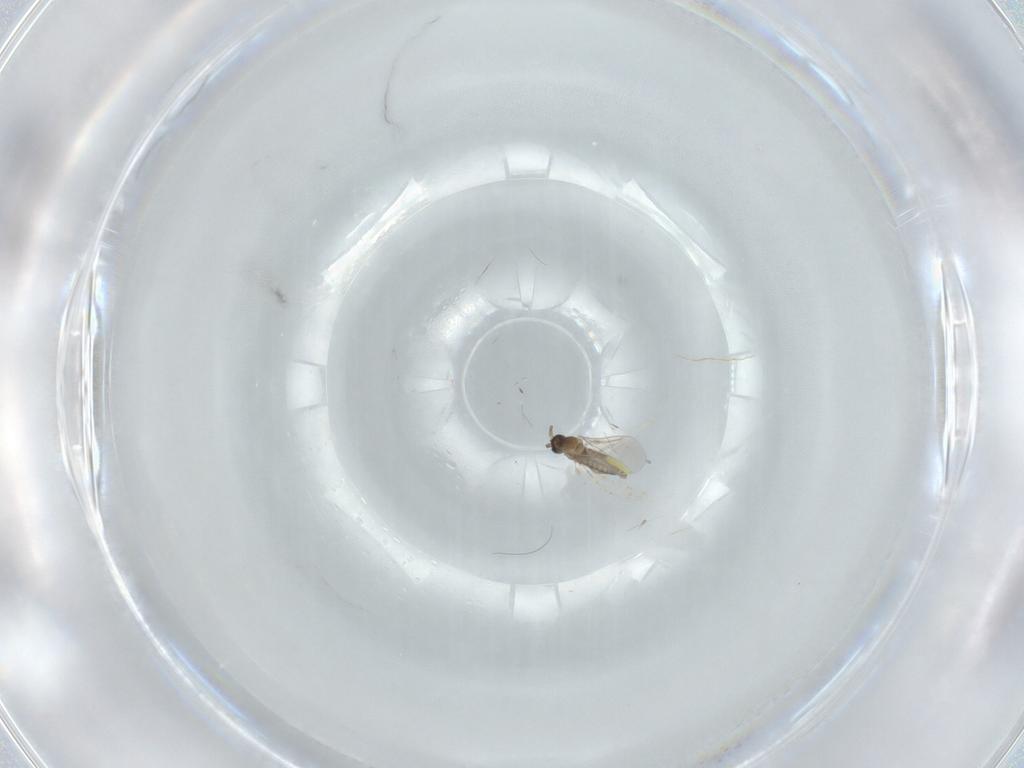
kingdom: Animalia
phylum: Arthropoda
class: Insecta
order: Diptera
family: Cecidomyiidae
